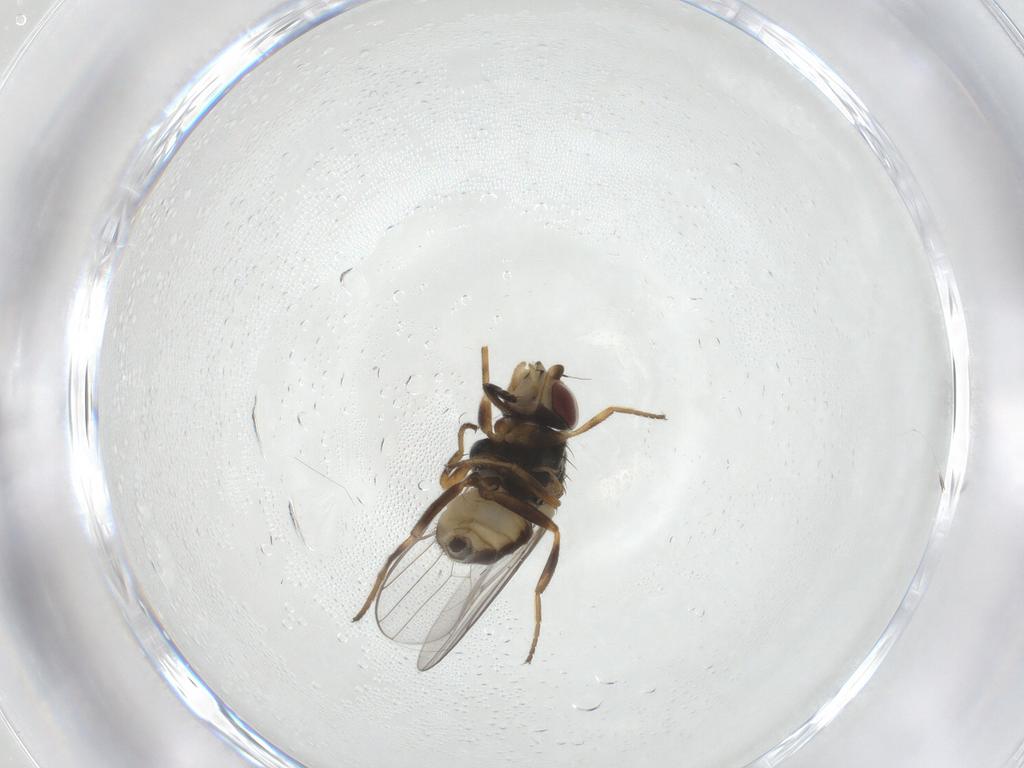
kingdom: Animalia
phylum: Arthropoda
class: Insecta
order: Diptera
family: Chloropidae
